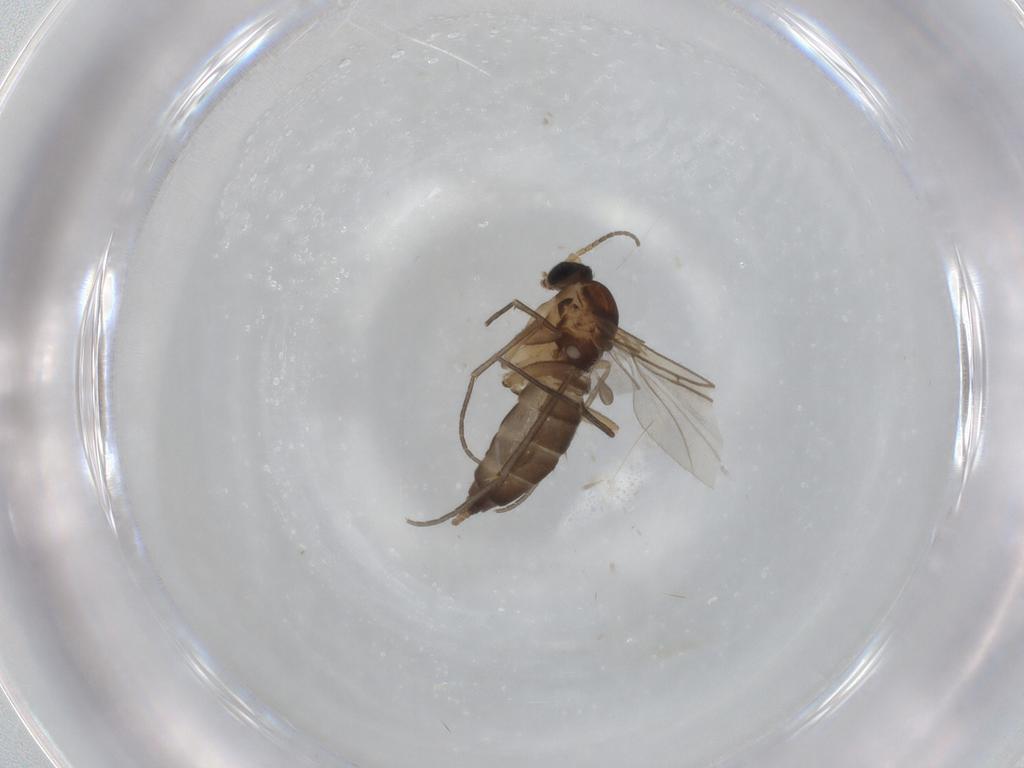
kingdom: Animalia
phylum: Arthropoda
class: Insecta
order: Diptera
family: Sciaridae
